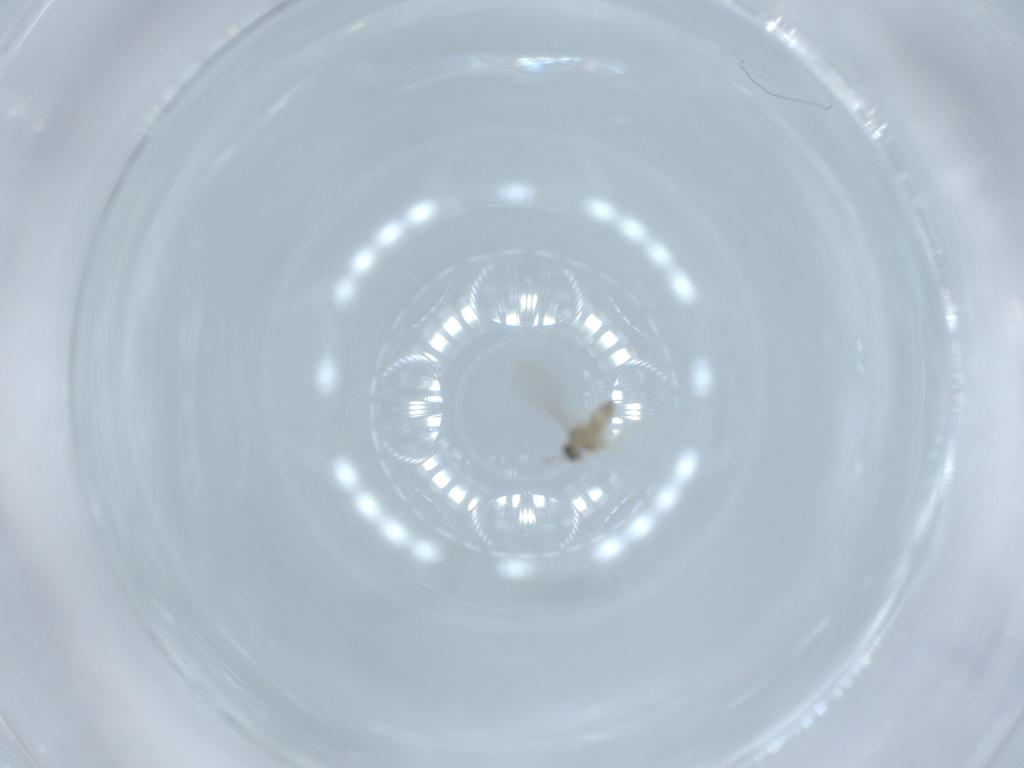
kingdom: Animalia
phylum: Arthropoda
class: Insecta
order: Diptera
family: Cecidomyiidae
